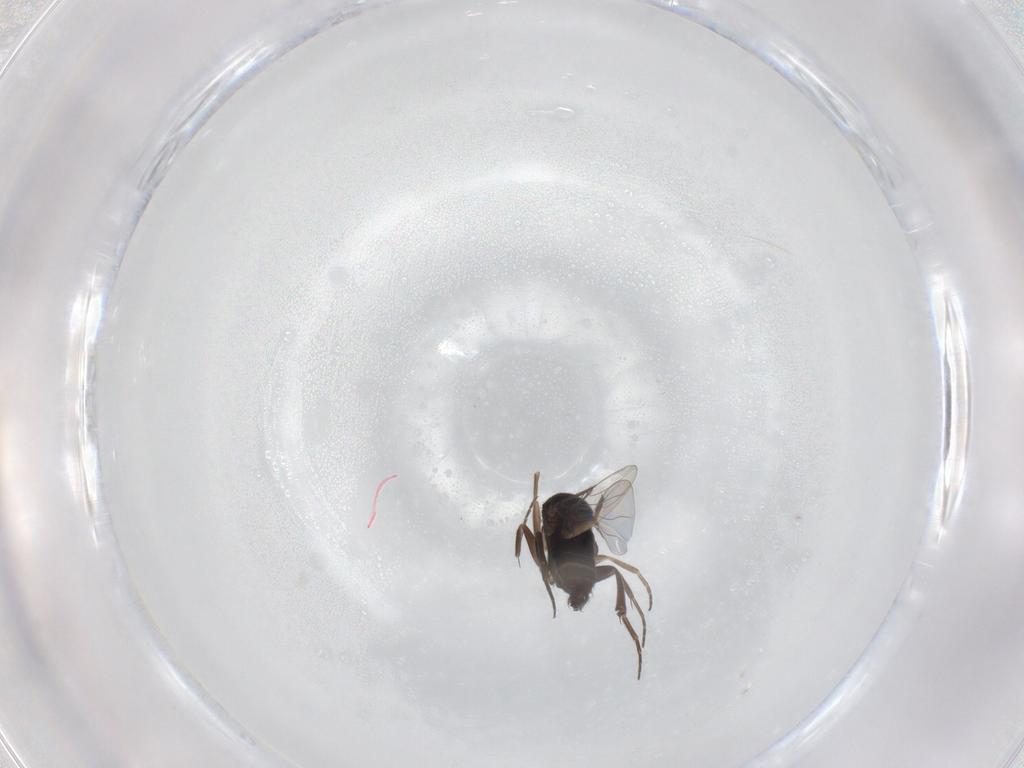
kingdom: Animalia
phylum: Arthropoda
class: Insecta
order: Diptera
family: Phoridae
